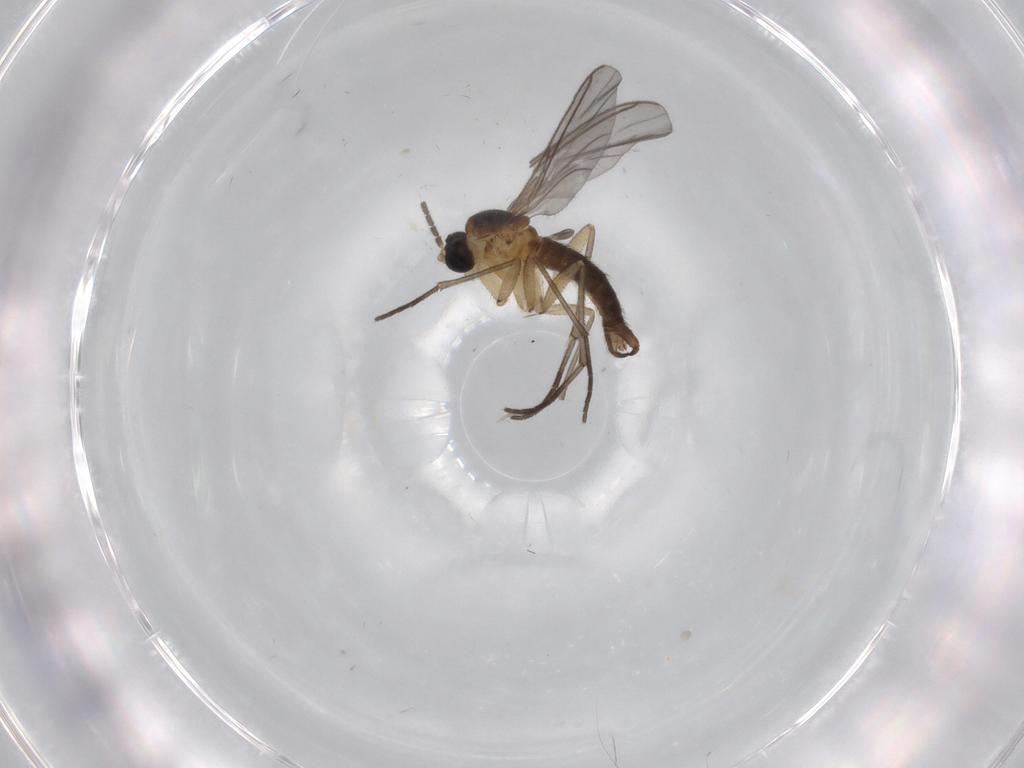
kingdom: Animalia
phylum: Arthropoda
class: Insecta
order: Diptera
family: Sciaridae
